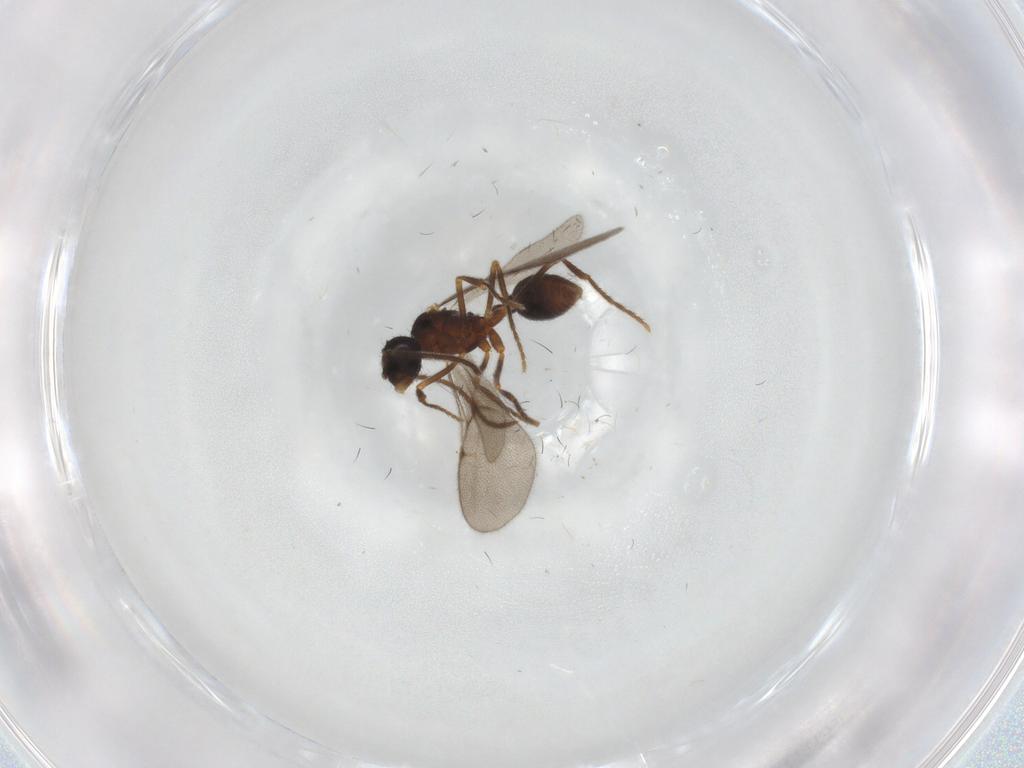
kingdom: Animalia
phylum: Arthropoda
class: Insecta
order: Hymenoptera
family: Formicidae
